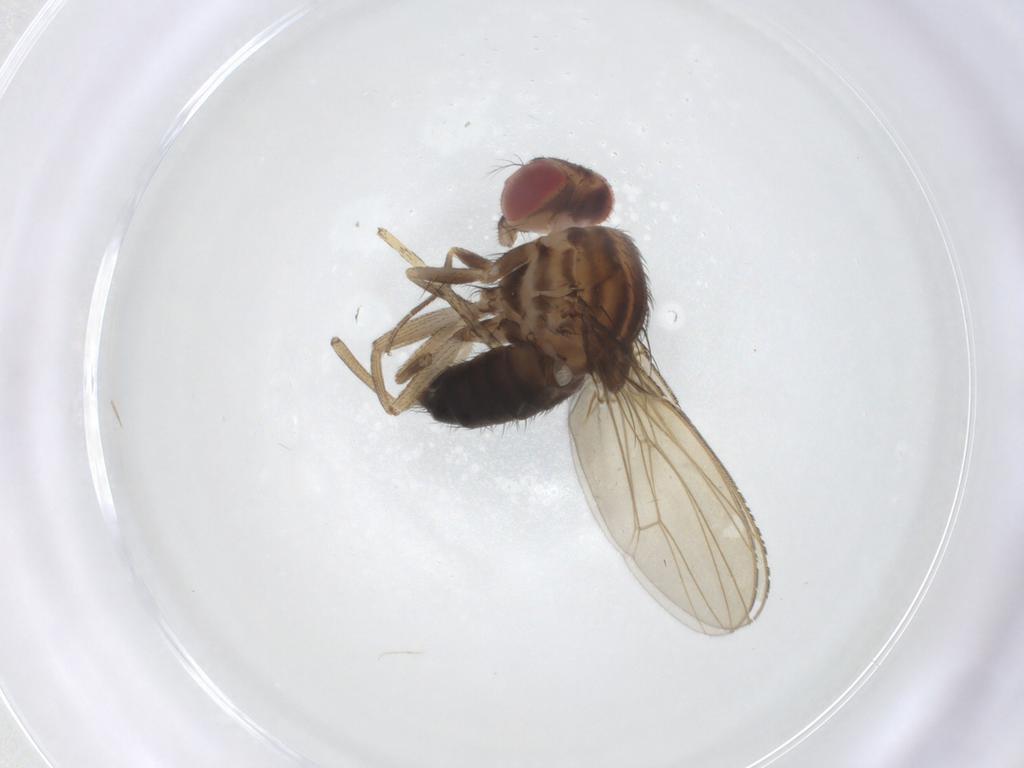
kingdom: Animalia
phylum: Arthropoda
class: Insecta
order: Diptera
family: Drosophilidae
